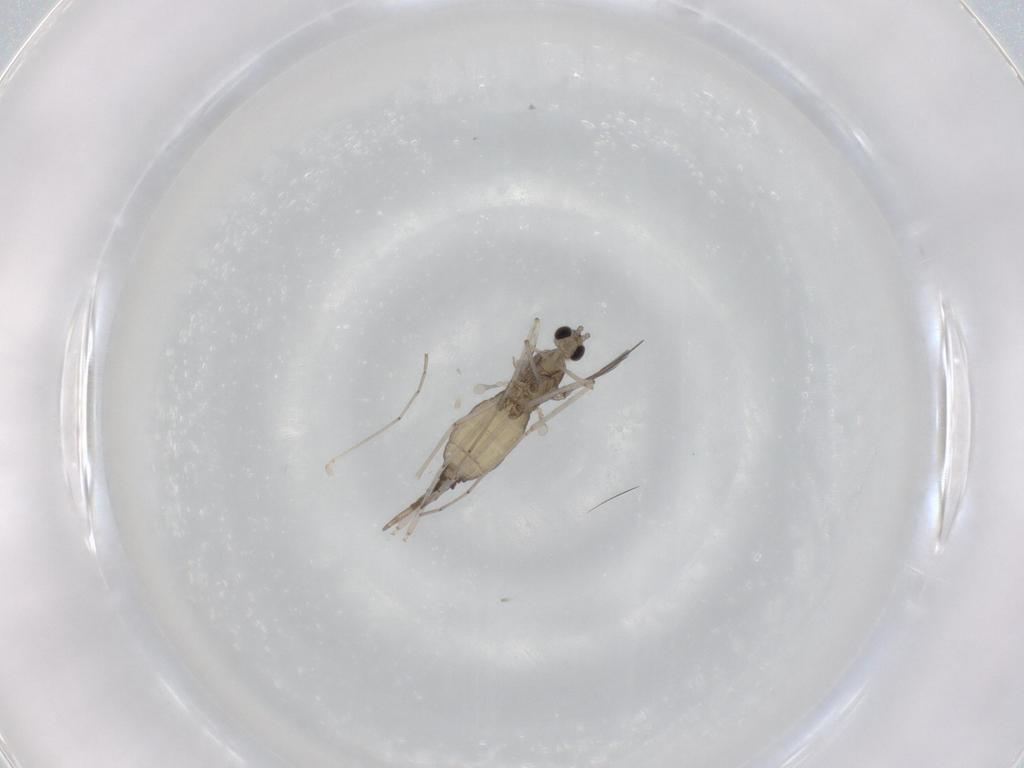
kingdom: Animalia
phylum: Arthropoda
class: Insecta
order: Diptera
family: Cecidomyiidae
